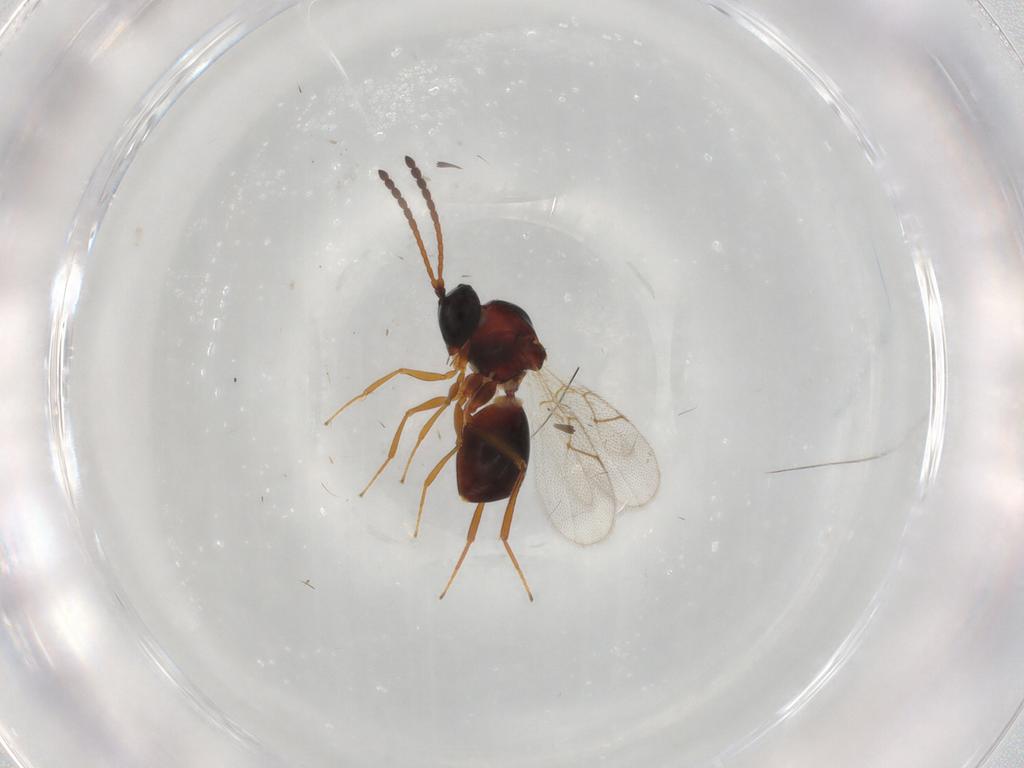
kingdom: Animalia
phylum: Arthropoda
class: Insecta
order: Hymenoptera
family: Figitidae
